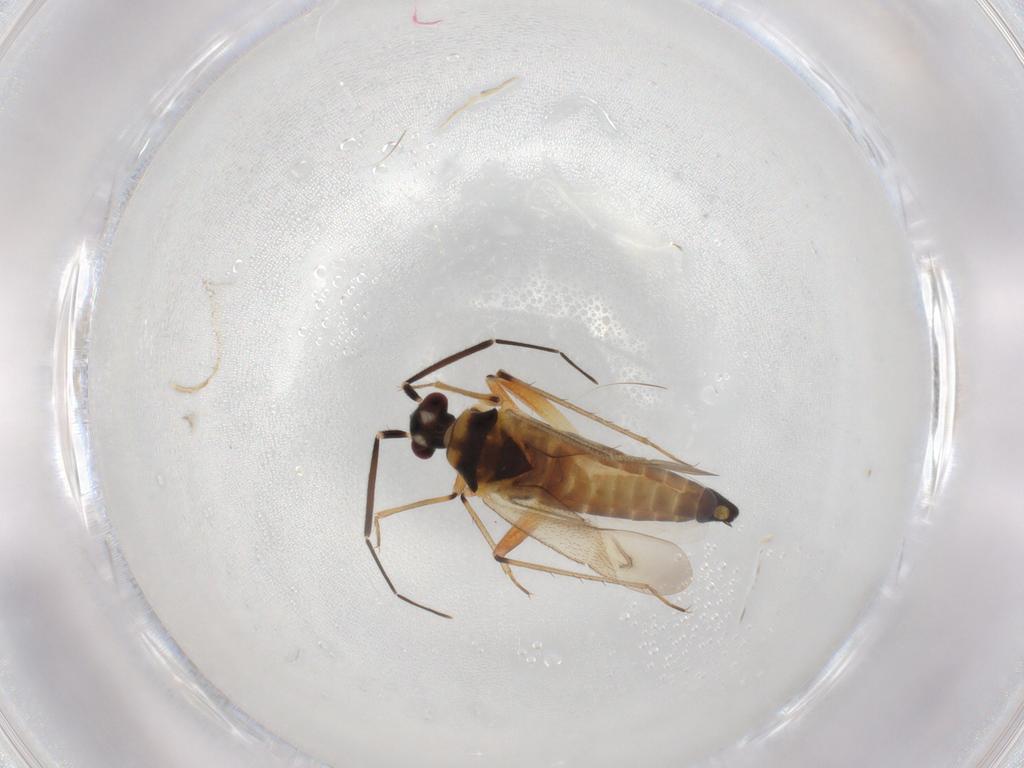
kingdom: Animalia
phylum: Arthropoda
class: Insecta
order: Hemiptera
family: Miridae
